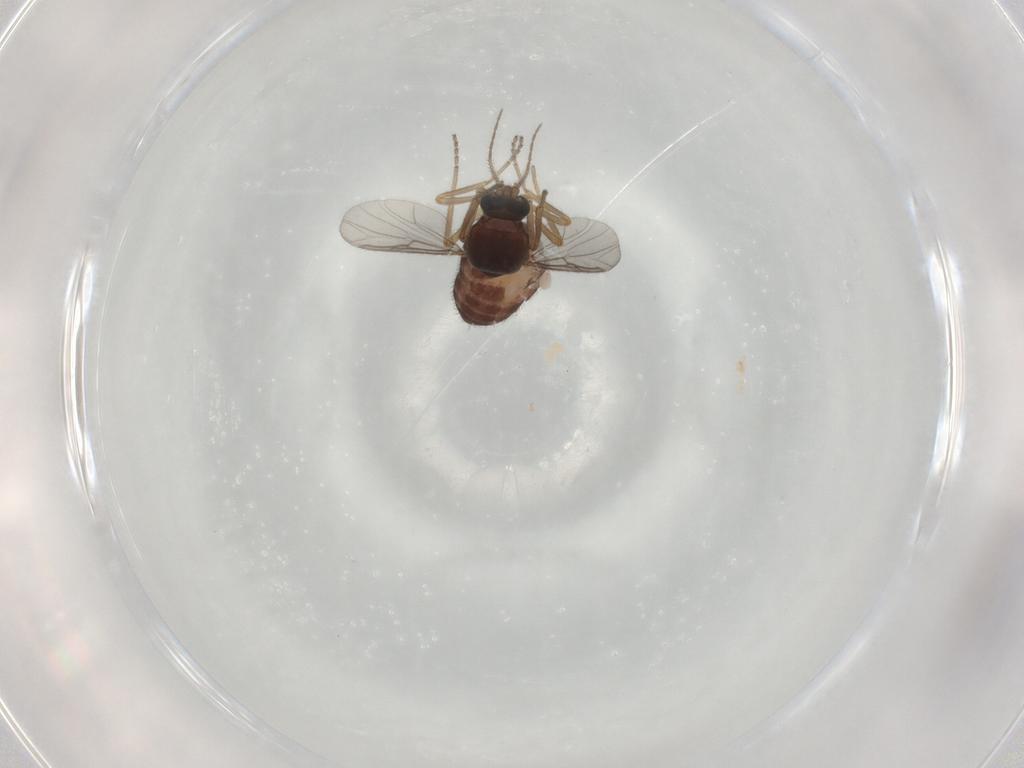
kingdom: Animalia
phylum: Arthropoda
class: Insecta
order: Diptera
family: Ceratopogonidae
